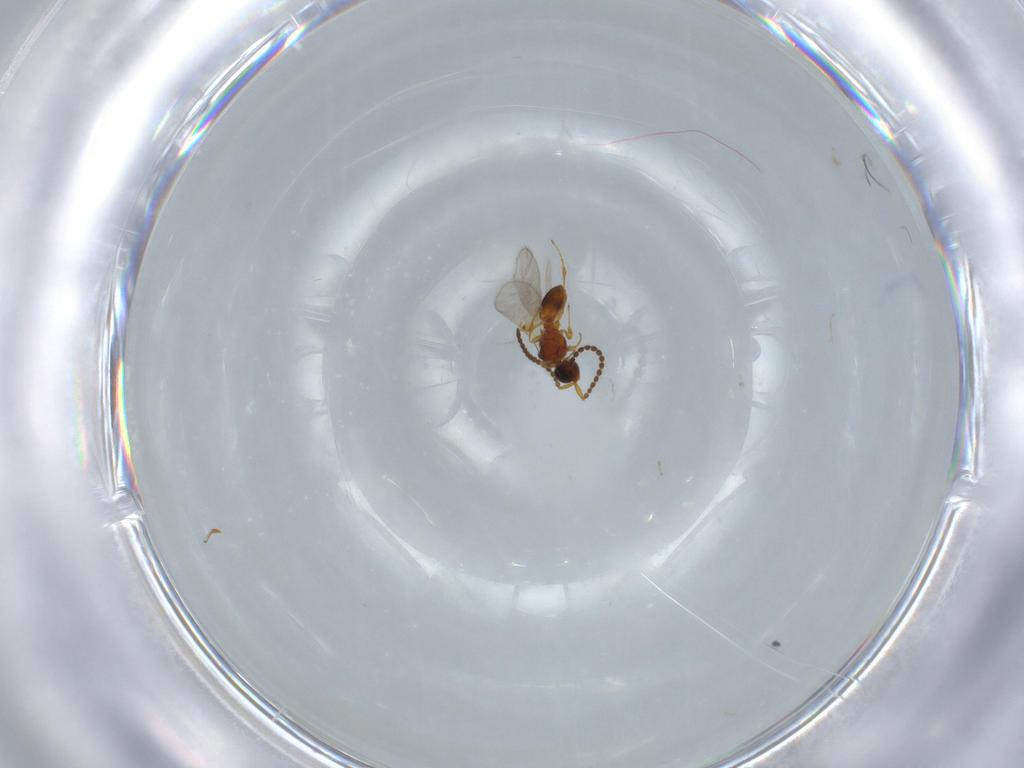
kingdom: Animalia
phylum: Arthropoda
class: Insecta
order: Hymenoptera
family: Diapriidae
